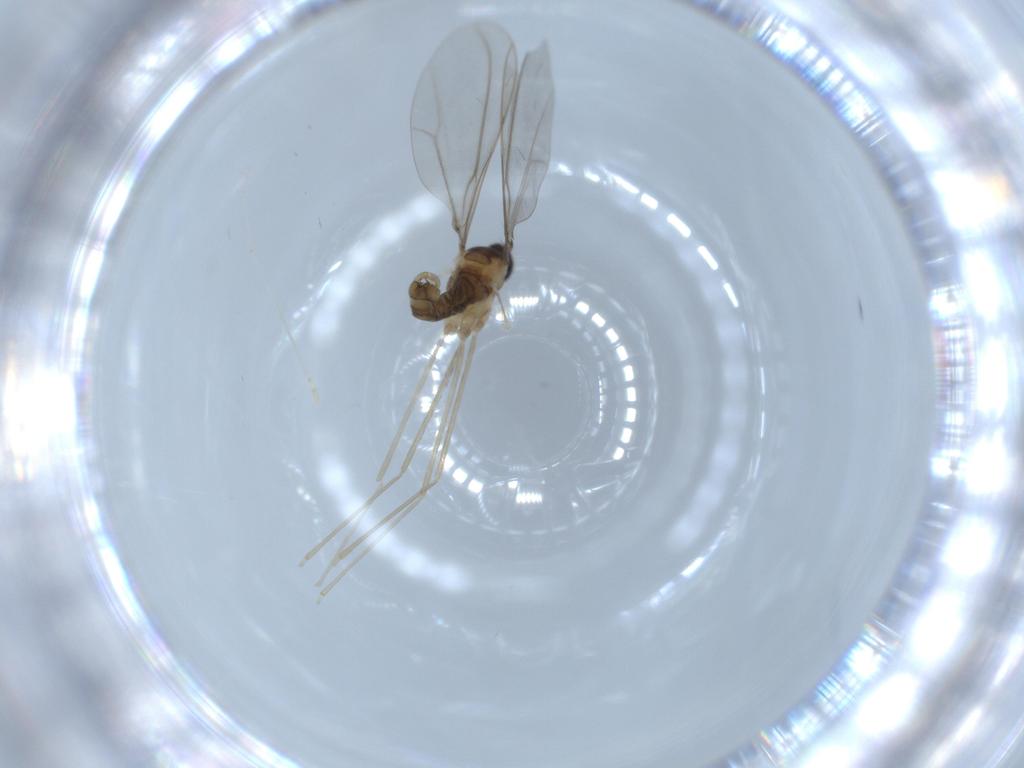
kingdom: Animalia
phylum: Arthropoda
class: Insecta
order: Diptera
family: Cecidomyiidae
